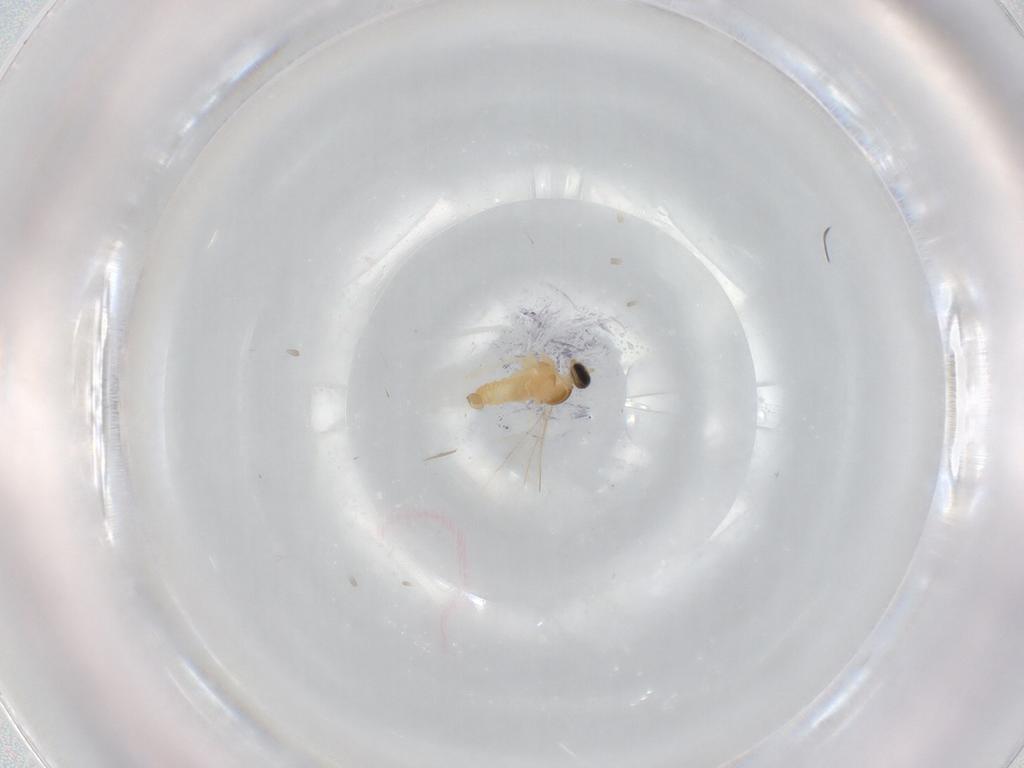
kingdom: Animalia
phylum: Arthropoda
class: Insecta
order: Diptera
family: Cecidomyiidae
